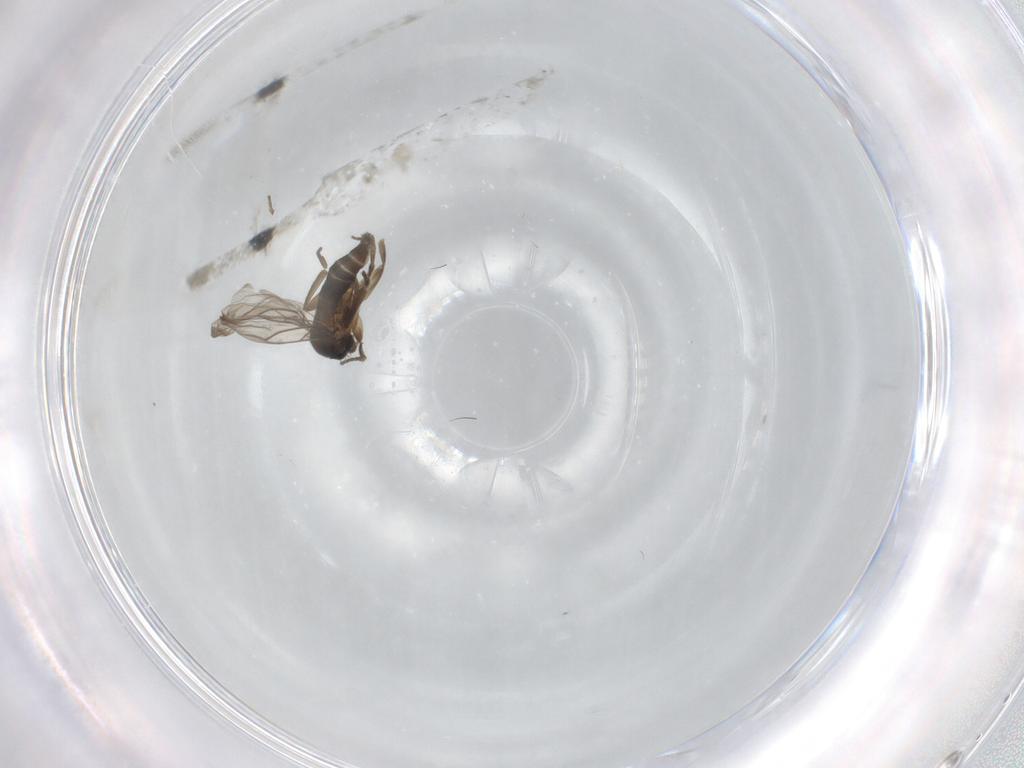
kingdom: Animalia
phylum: Arthropoda
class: Insecta
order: Diptera
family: Phoridae
